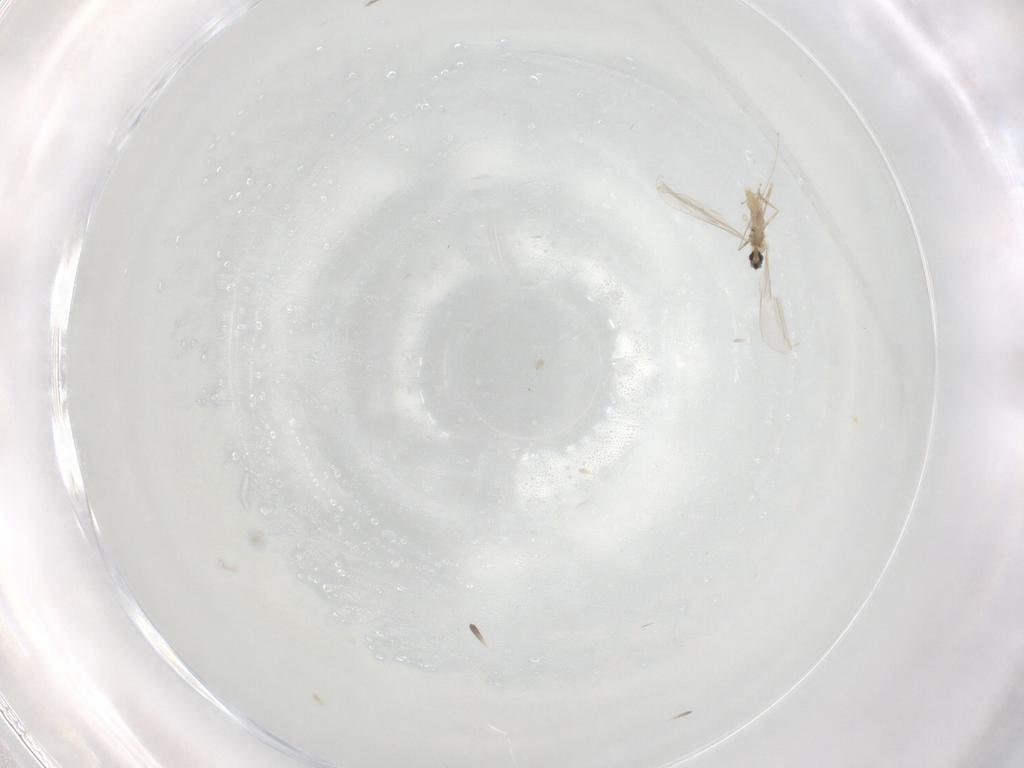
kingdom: Animalia
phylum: Arthropoda
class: Insecta
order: Diptera
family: Cecidomyiidae
